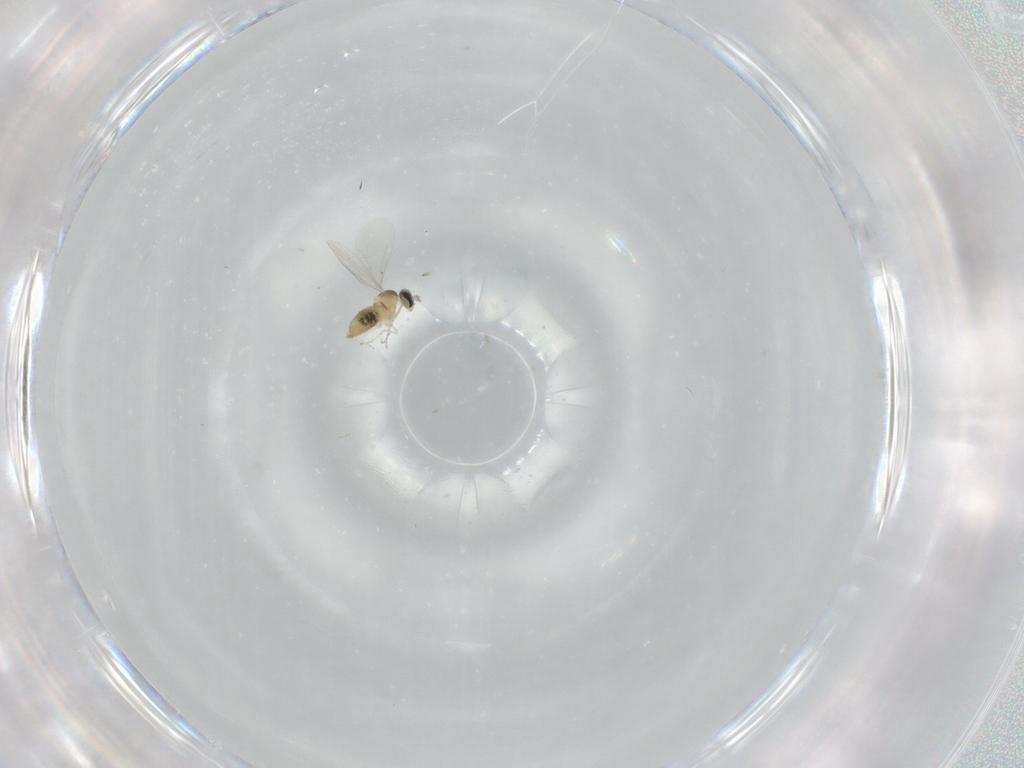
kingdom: Animalia
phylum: Arthropoda
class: Insecta
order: Diptera
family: Cecidomyiidae
